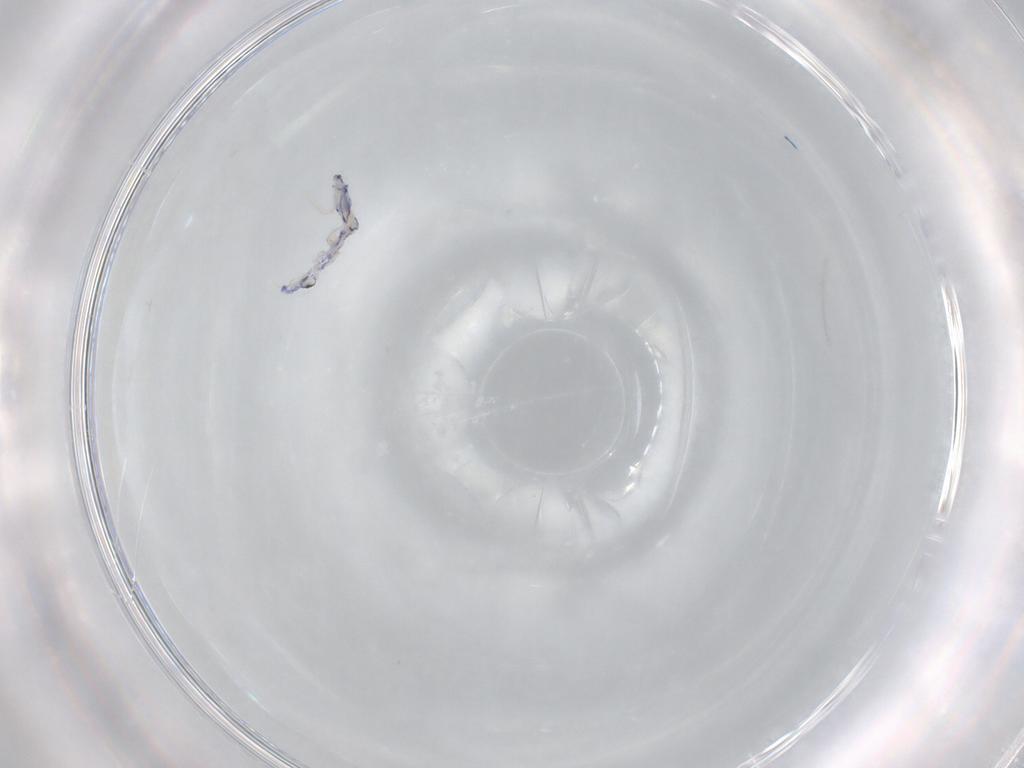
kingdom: Animalia
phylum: Arthropoda
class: Collembola
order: Entomobryomorpha
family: Entomobryidae
